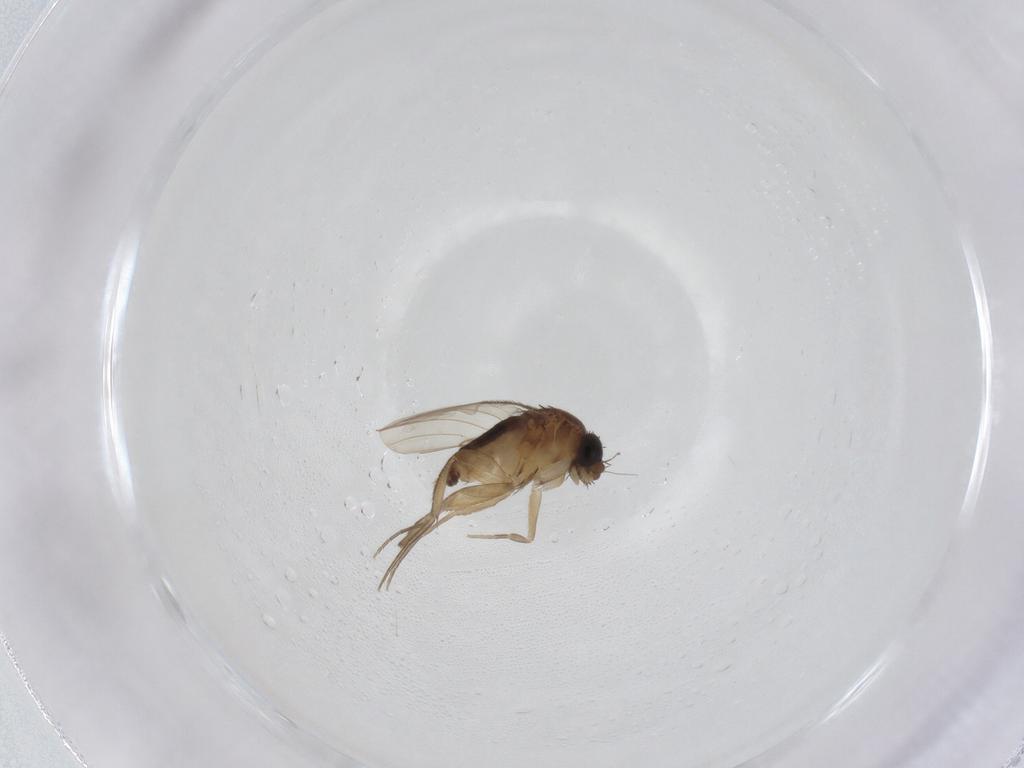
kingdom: Animalia
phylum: Arthropoda
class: Insecta
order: Diptera
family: Phoridae
